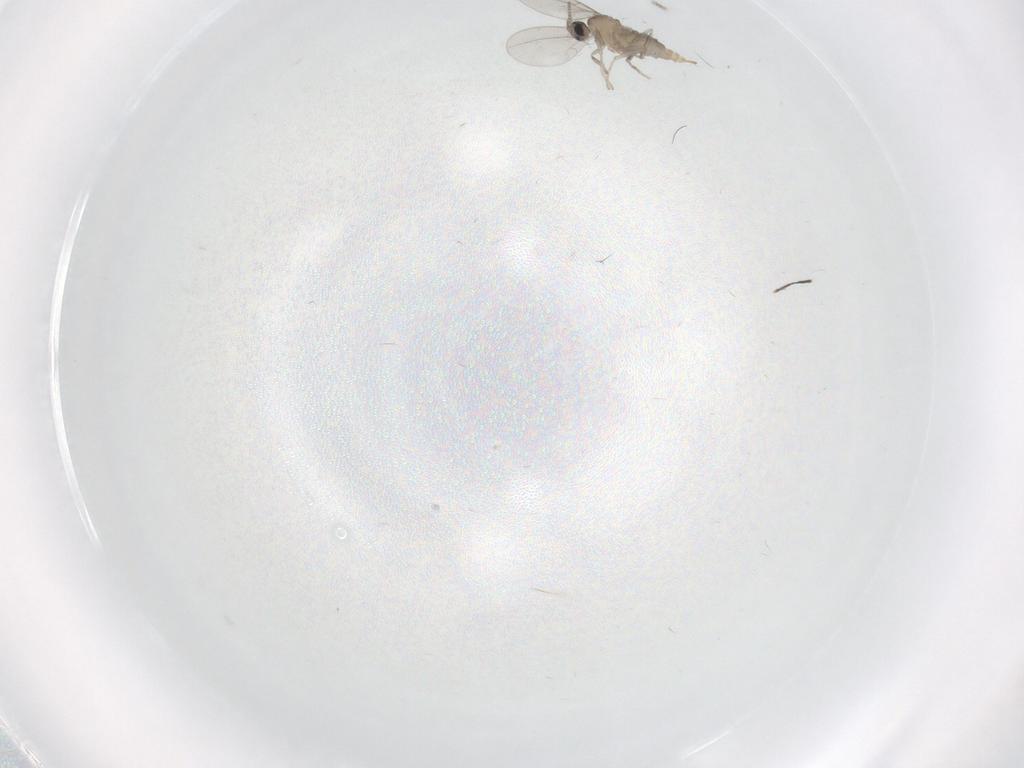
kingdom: Animalia
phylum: Arthropoda
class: Insecta
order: Diptera
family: Cecidomyiidae
